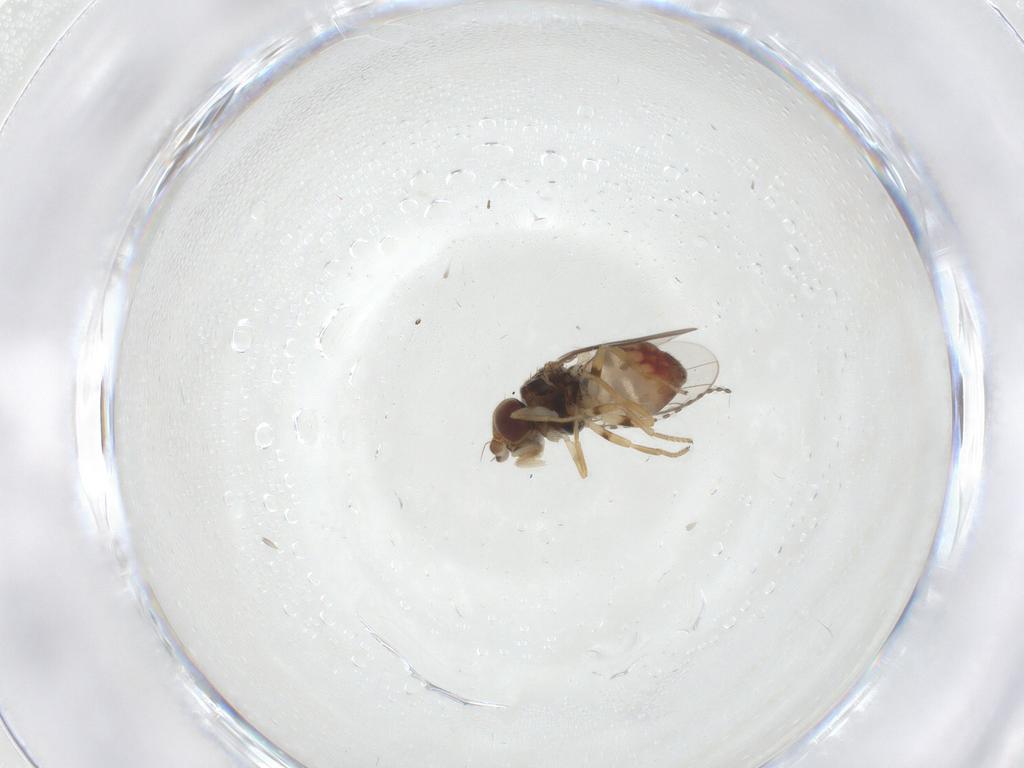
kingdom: Animalia
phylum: Arthropoda
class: Insecta
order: Diptera
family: Chloropidae
